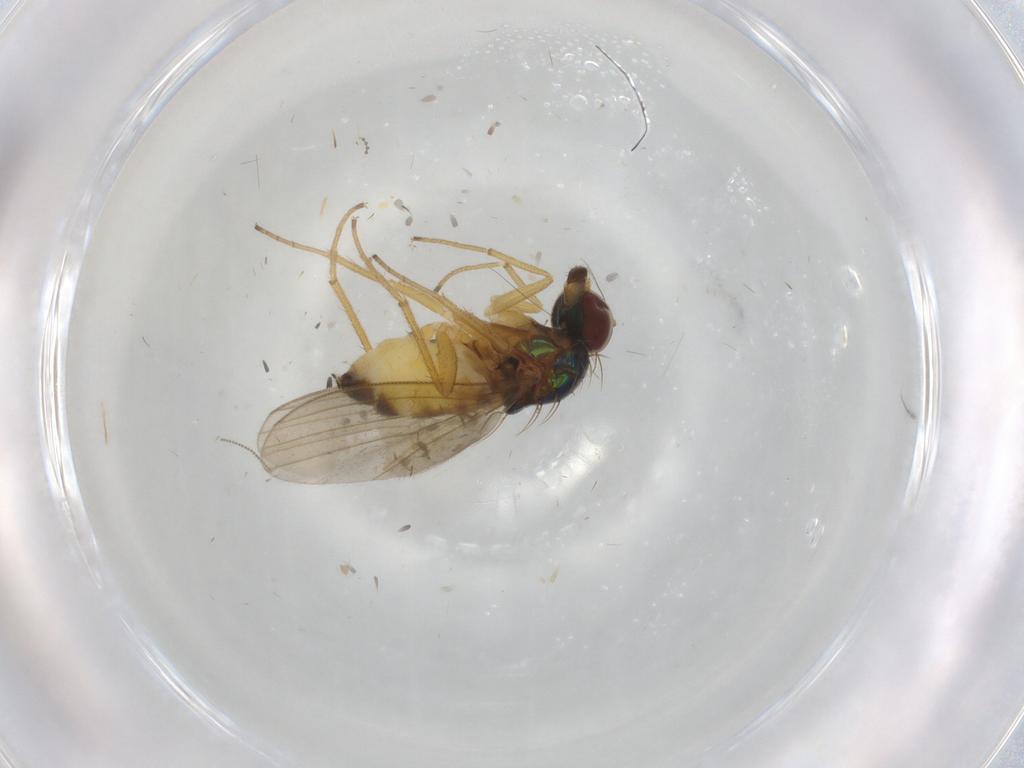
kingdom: Animalia
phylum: Arthropoda
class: Insecta
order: Diptera
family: Dolichopodidae
